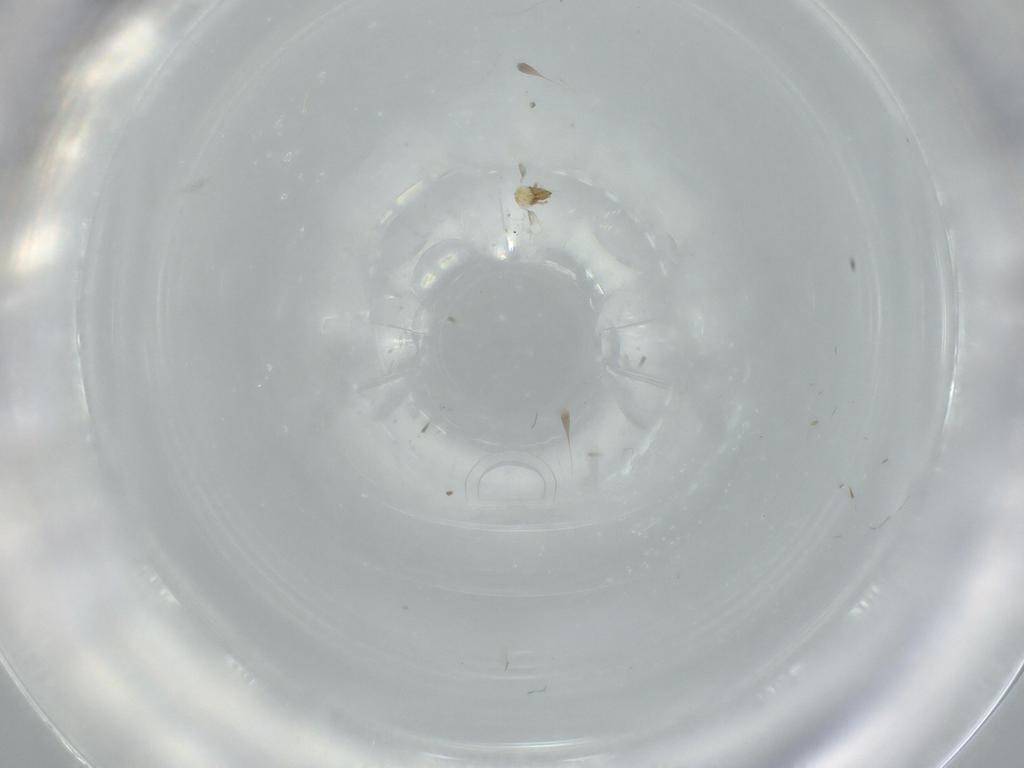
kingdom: Animalia
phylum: Arthropoda
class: Insecta
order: Hymenoptera
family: Trichogrammatidae
